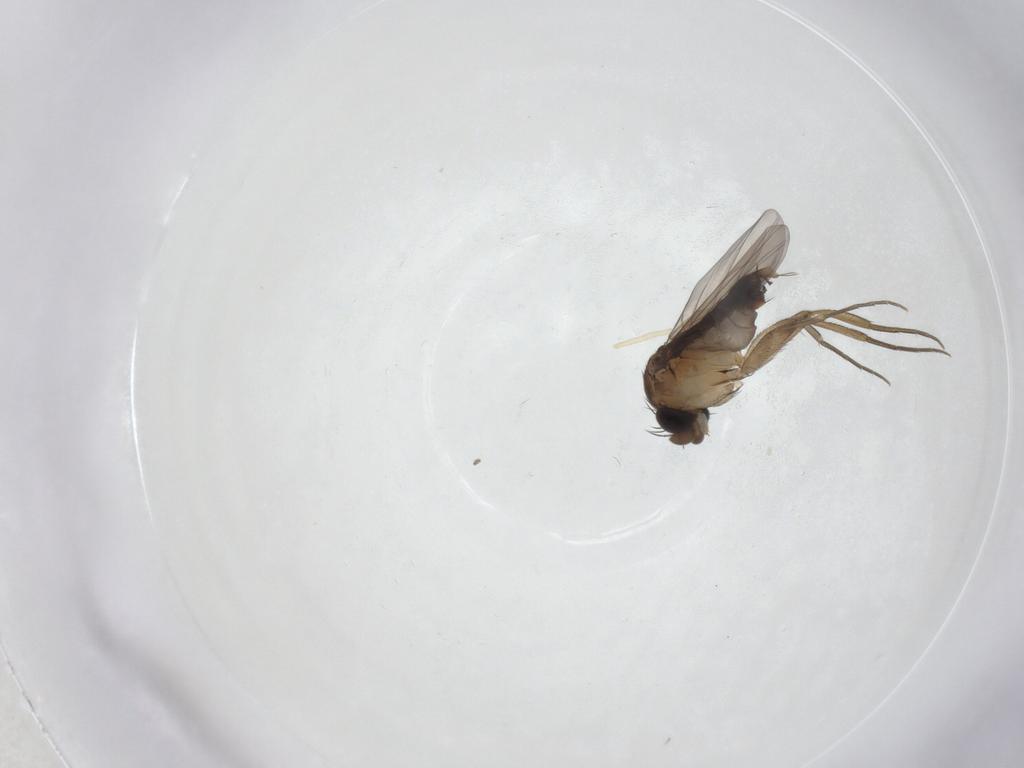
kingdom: Animalia
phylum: Arthropoda
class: Insecta
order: Diptera
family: Phoridae
